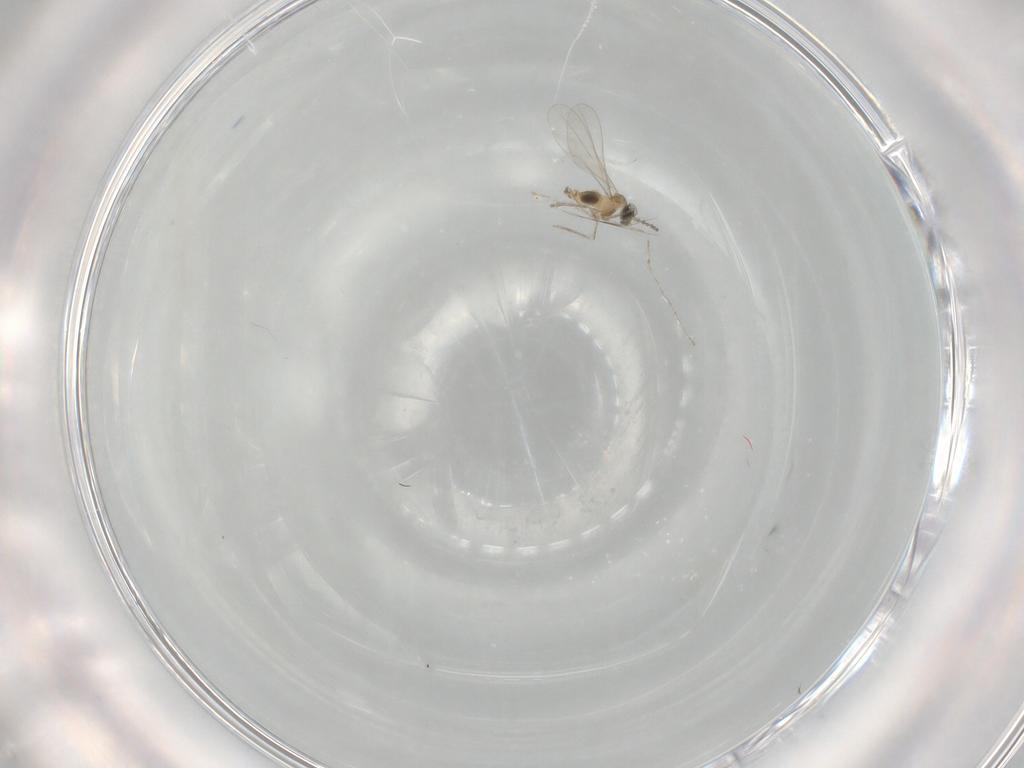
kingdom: Animalia
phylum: Arthropoda
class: Insecta
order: Diptera
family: Cecidomyiidae
